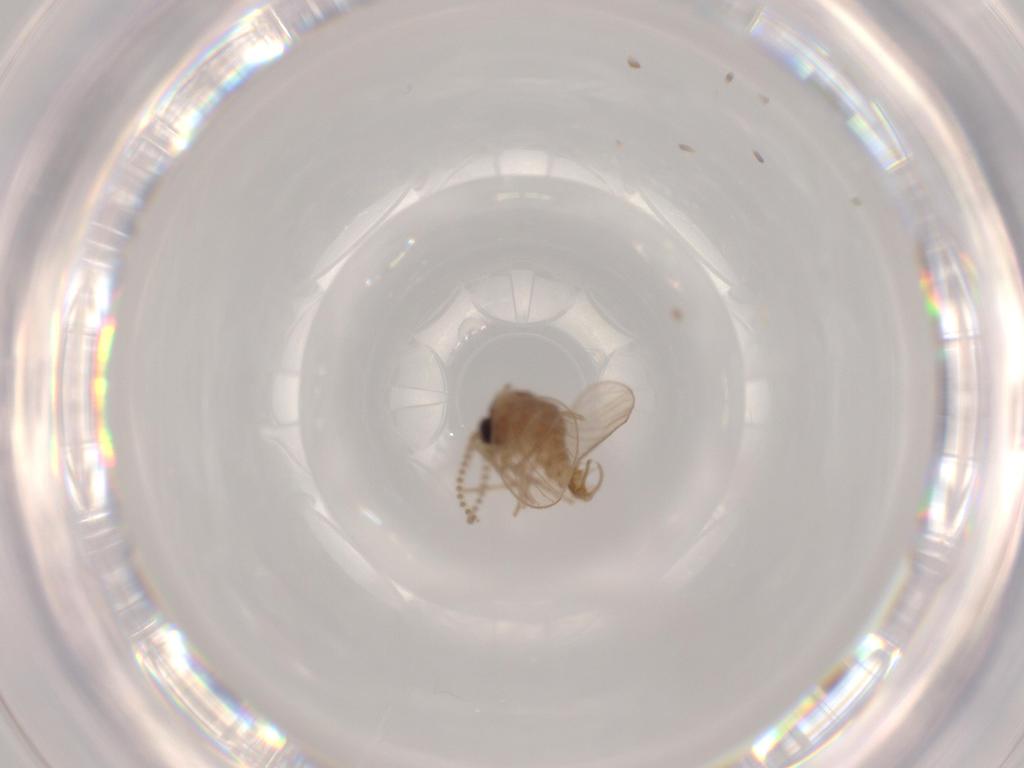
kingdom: Animalia
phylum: Arthropoda
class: Insecta
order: Diptera
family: Psychodidae
